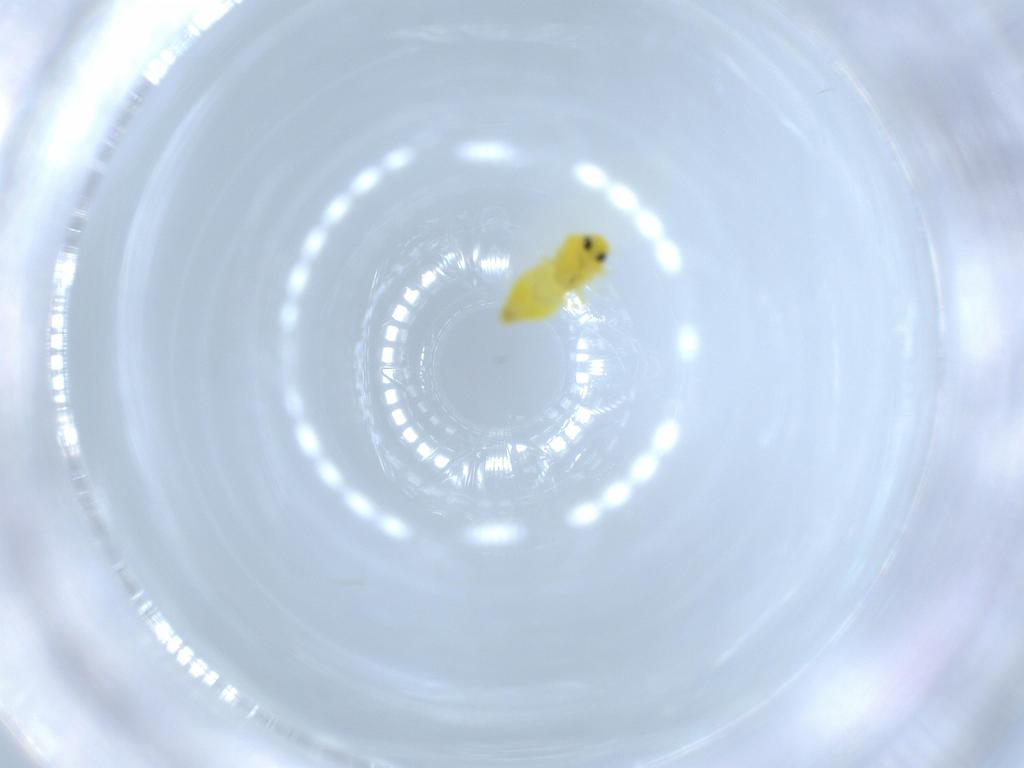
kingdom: Animalia
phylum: Arthropoda
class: Insecta
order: Hemiptera
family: Aleyrodidae
